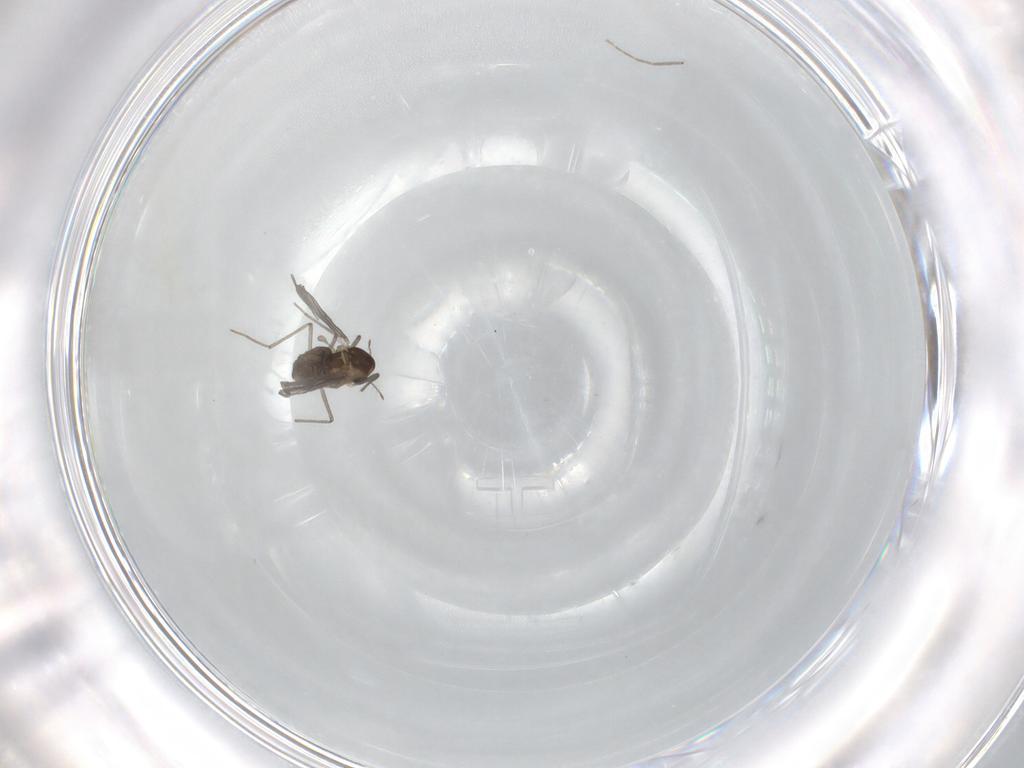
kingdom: Animalia
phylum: Arthropoda
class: Insecta
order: Diptera
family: Chironomidae
